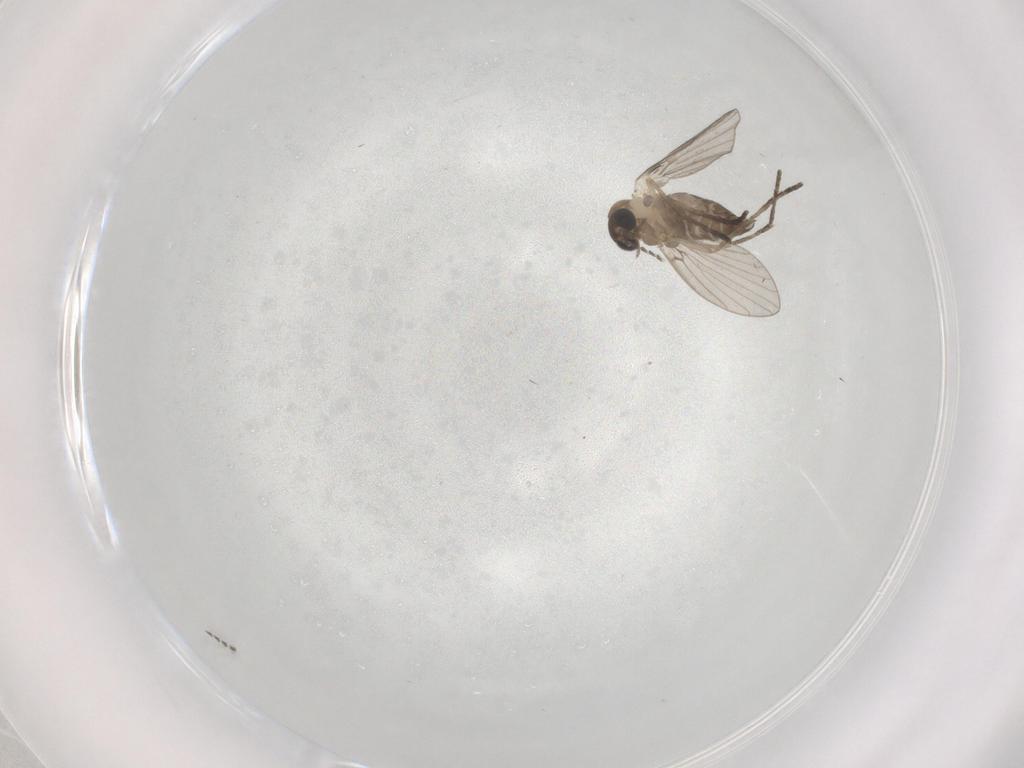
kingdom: Animalia
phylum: Arthropoda
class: Insecta
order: Diptera
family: Psychodidae
